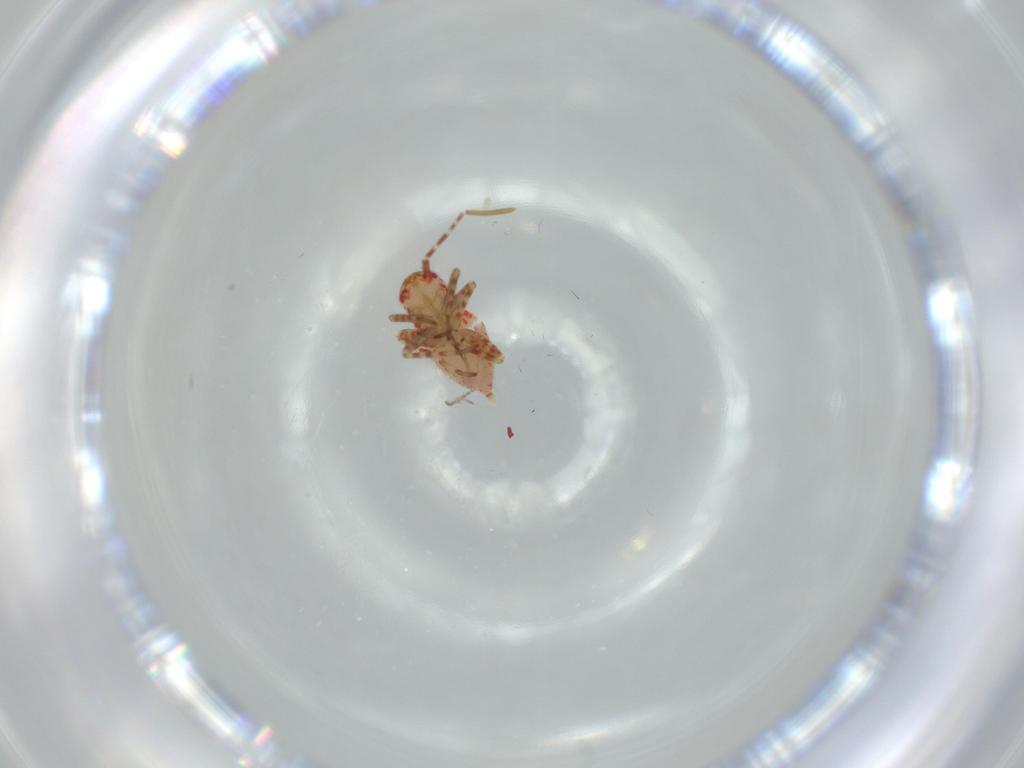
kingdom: Animalia
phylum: Arthropoda
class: Insecta
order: Hemiptera
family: Miridae
